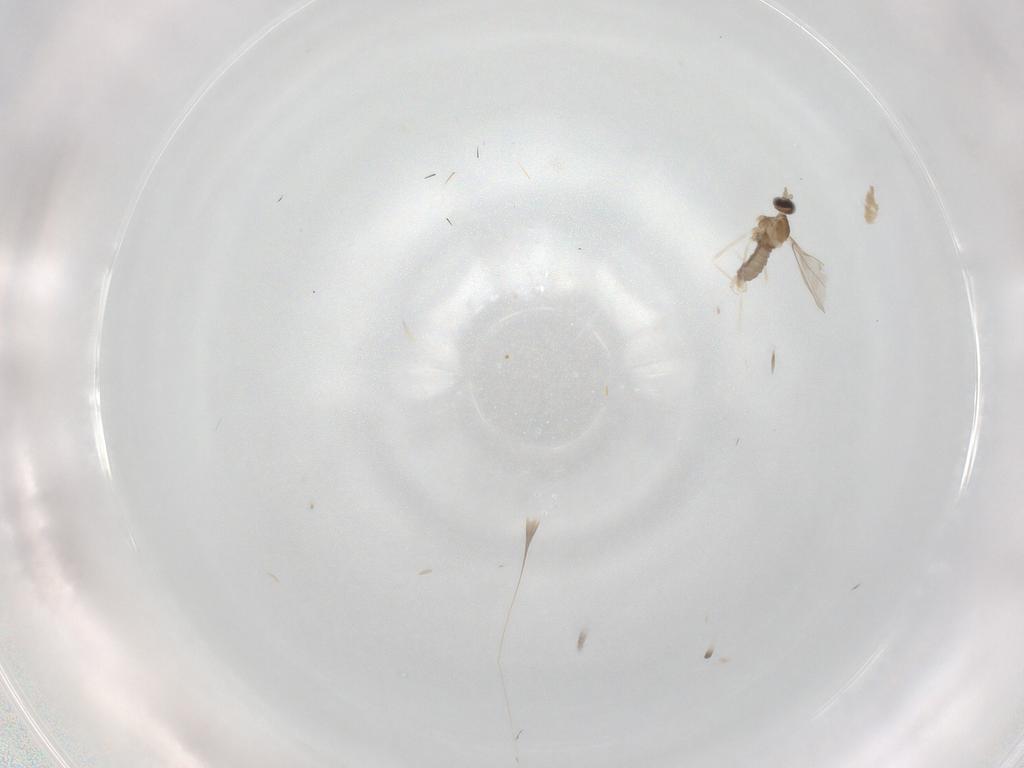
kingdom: Animalia
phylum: Arthropoda
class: Insecta
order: Diptera
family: Cecidomyiidae
